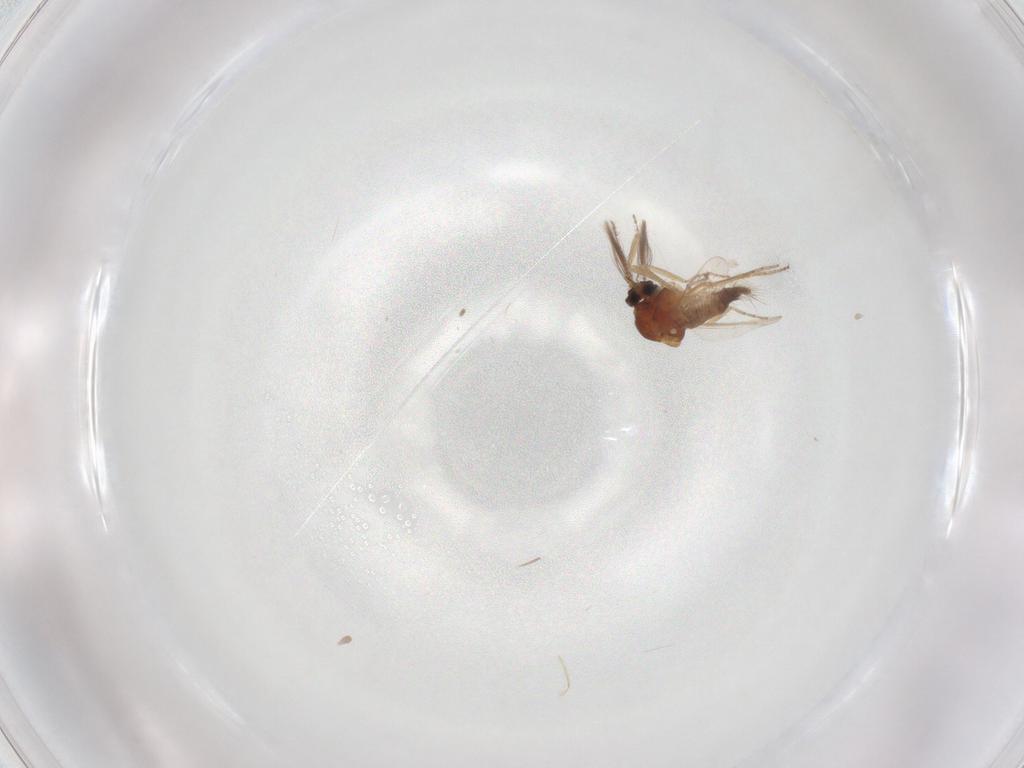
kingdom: Animalia
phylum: Arthropoda
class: Insecta
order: Diptera
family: Ceratopogonidae
